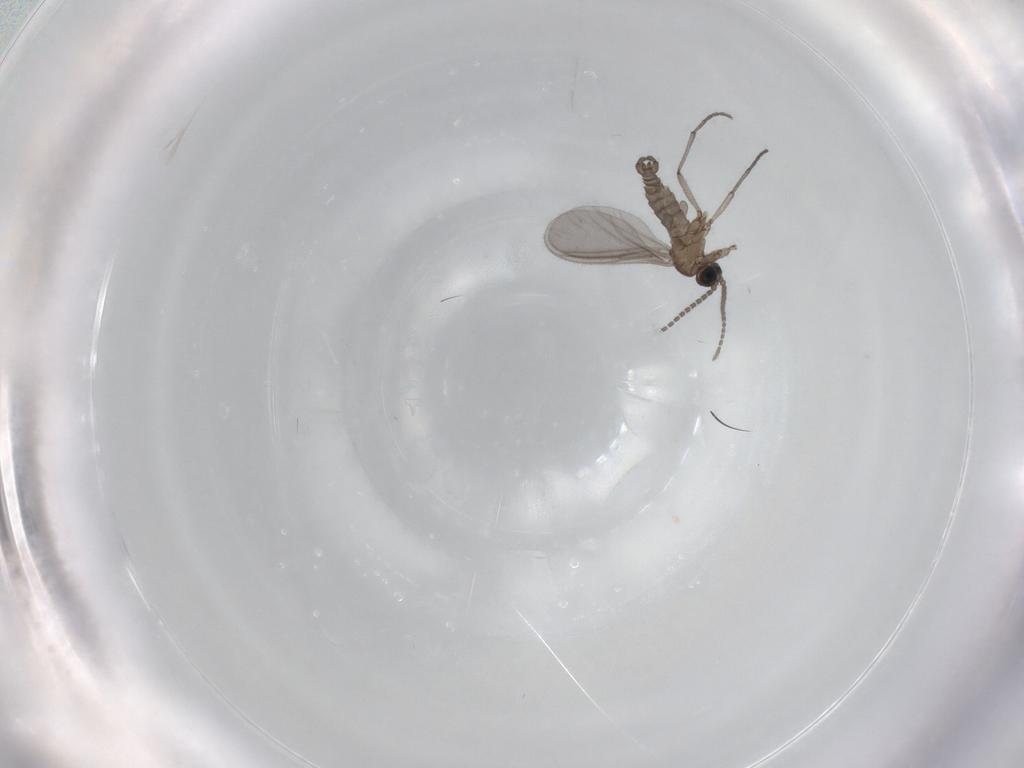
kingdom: Animalia
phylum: Arthropoda
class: Insecta
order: Diptera
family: Sciaridae
